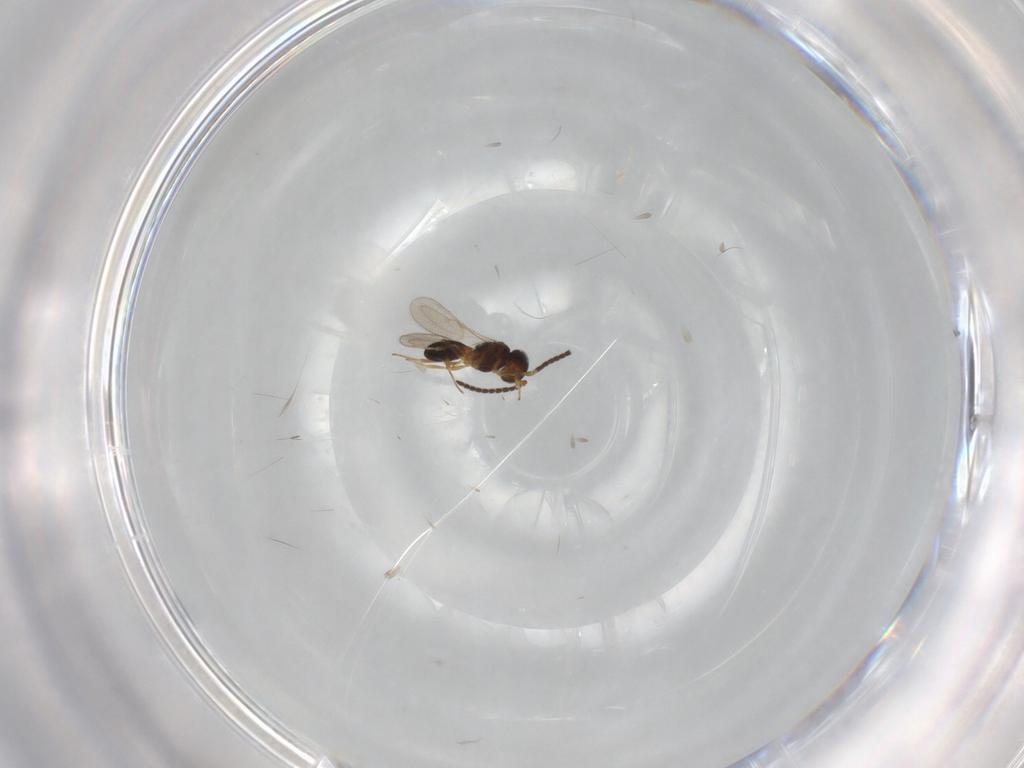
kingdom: Animalia
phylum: Arthropoda
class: Insecta
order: Hymenoptera
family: Scelionidae
